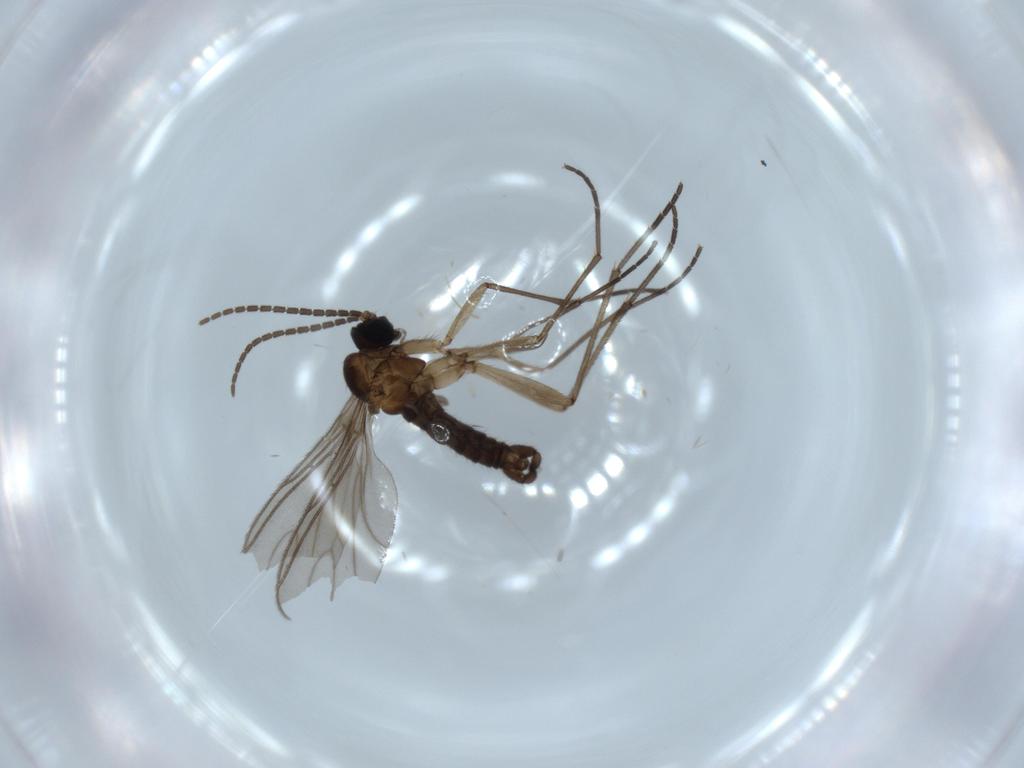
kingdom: Animalia
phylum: Arthropoda
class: Insecta
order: Diptera
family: Sciaridae
